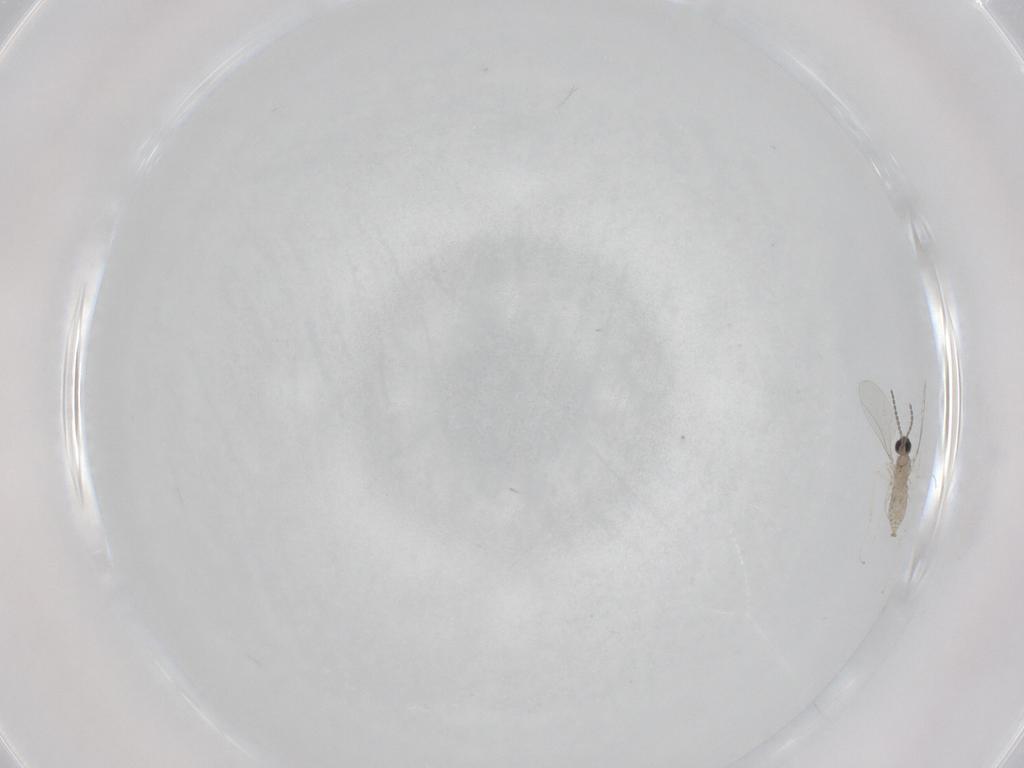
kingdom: Animalia
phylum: Arthropoda
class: Insecta
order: Diptera
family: Cecidomyiidae
